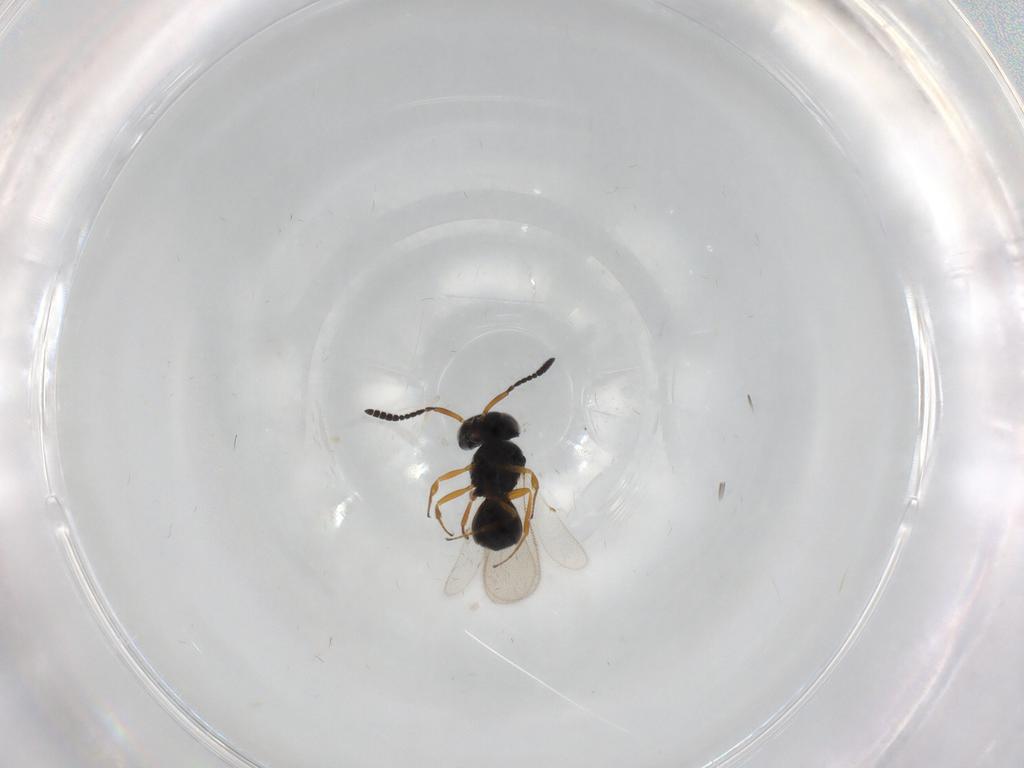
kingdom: Animalia
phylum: Arthropoda
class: Insecta
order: Hymenoptera
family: Scelionidae
